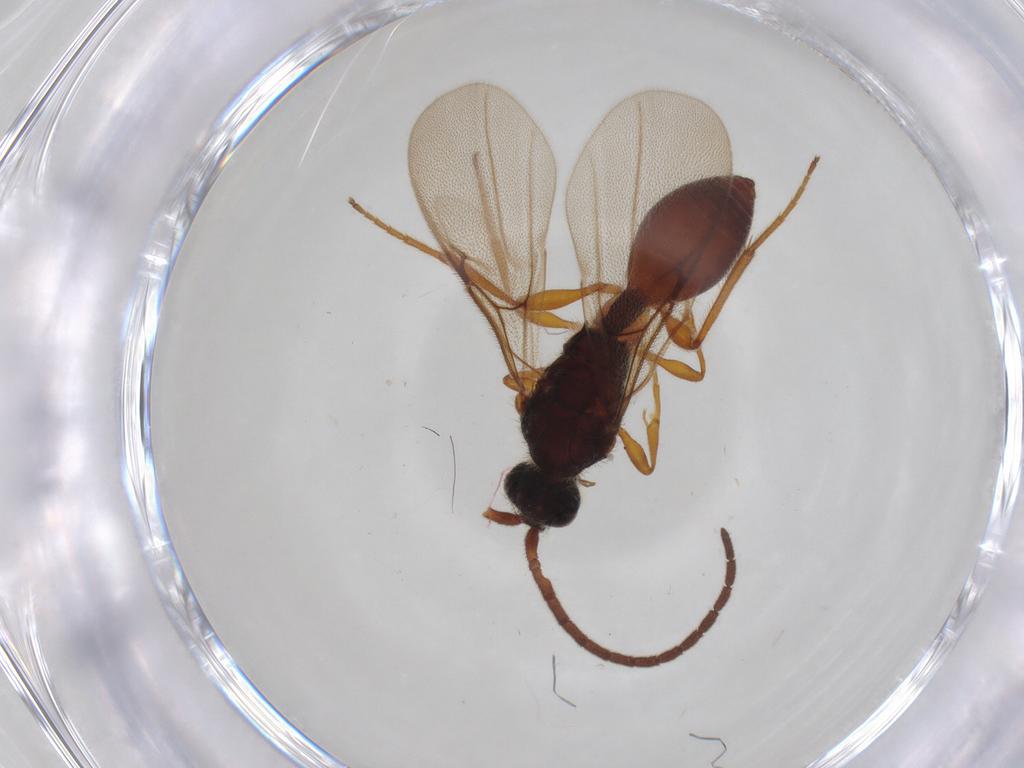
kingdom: Animalia
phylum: Arthropoda
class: Insecta
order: Hymenoptera
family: Diapriidae
